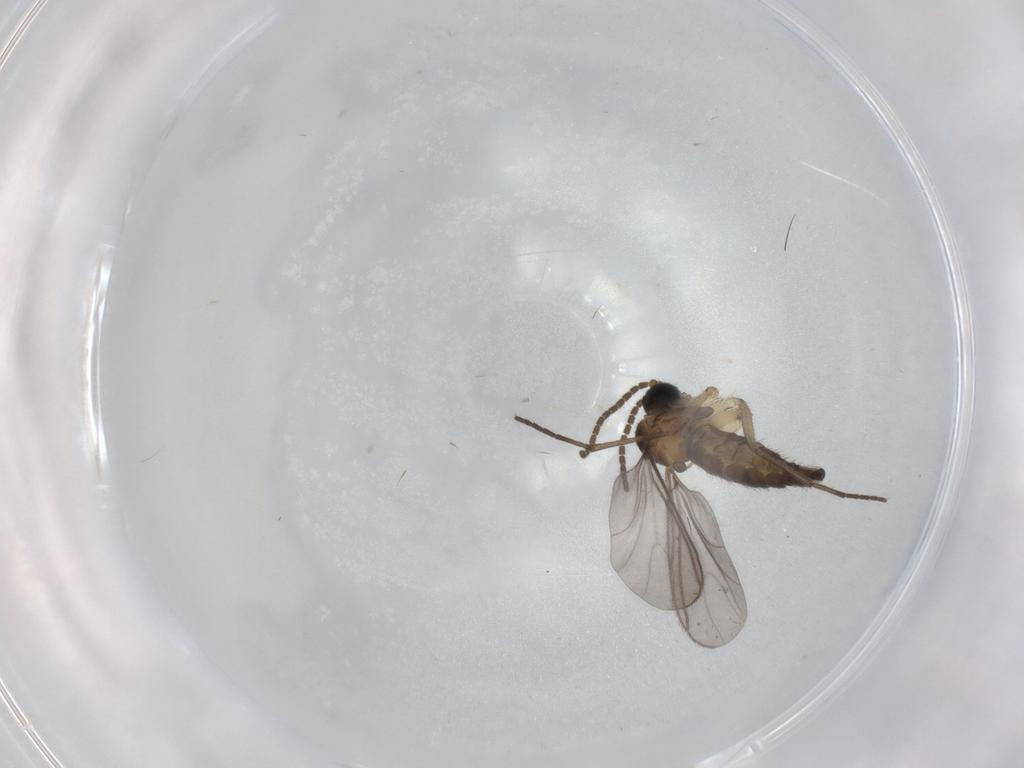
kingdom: Animalia
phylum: Arthropoda
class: Insecta
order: Diptera
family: Sciaridae
